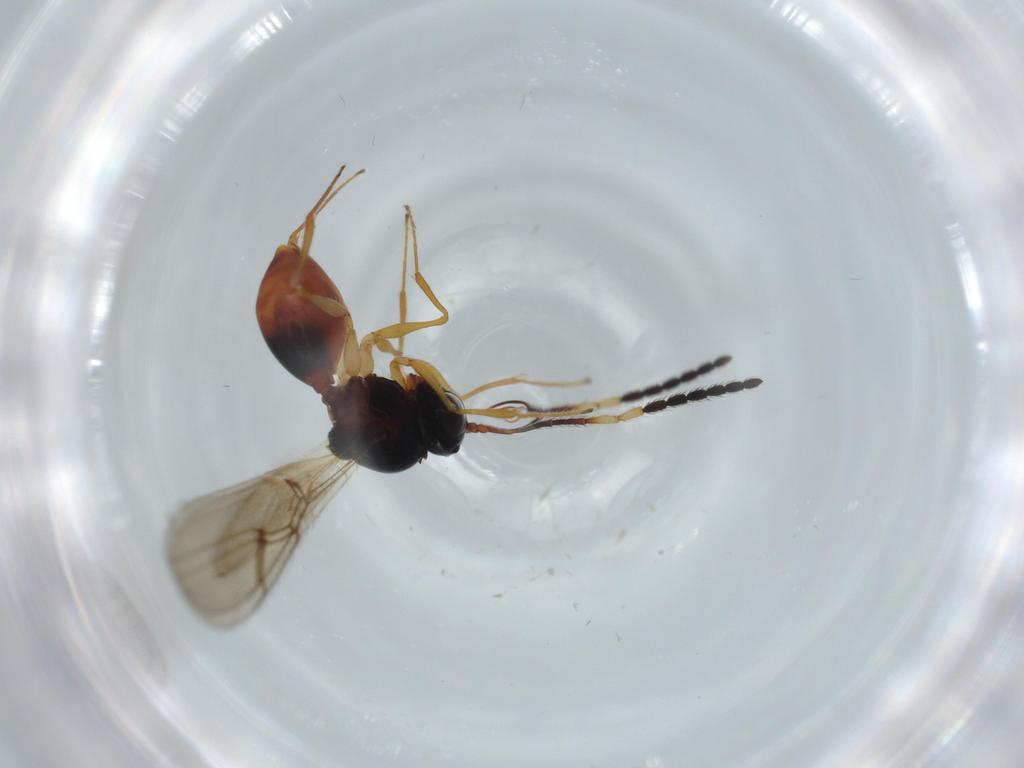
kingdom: Animalia
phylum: Arthropoda
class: Insecta
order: Hymenoptera
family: Figitidae
